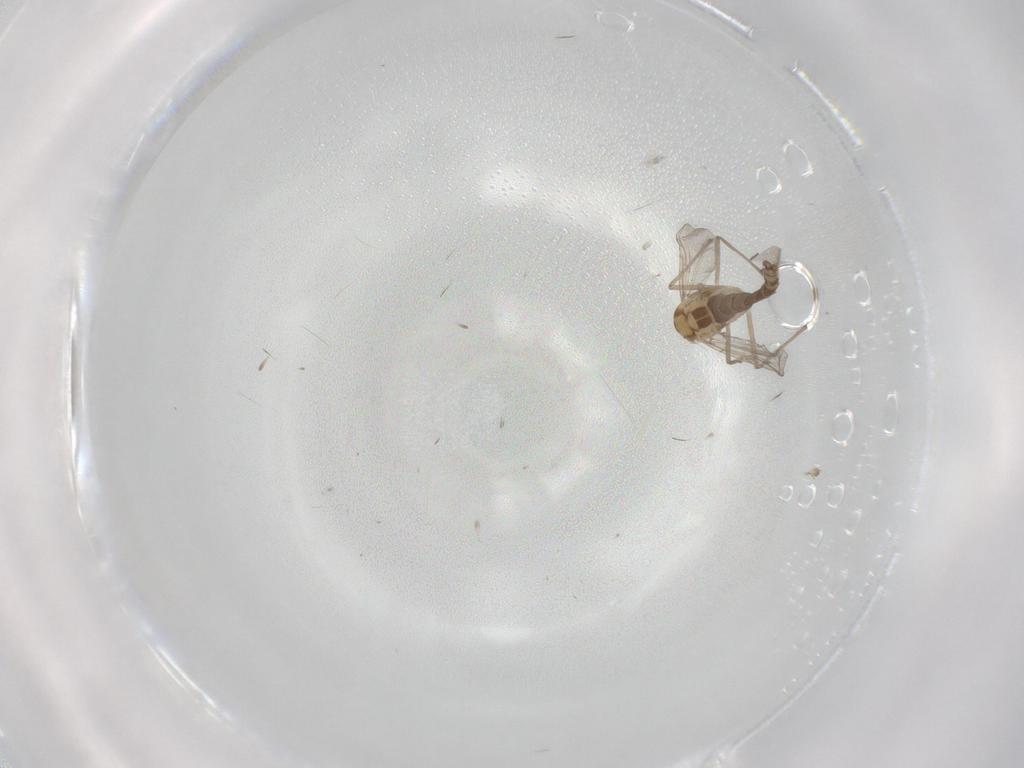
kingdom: Animalia
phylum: Arthropoda
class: Insecta
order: Diptera
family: Chironomidae
